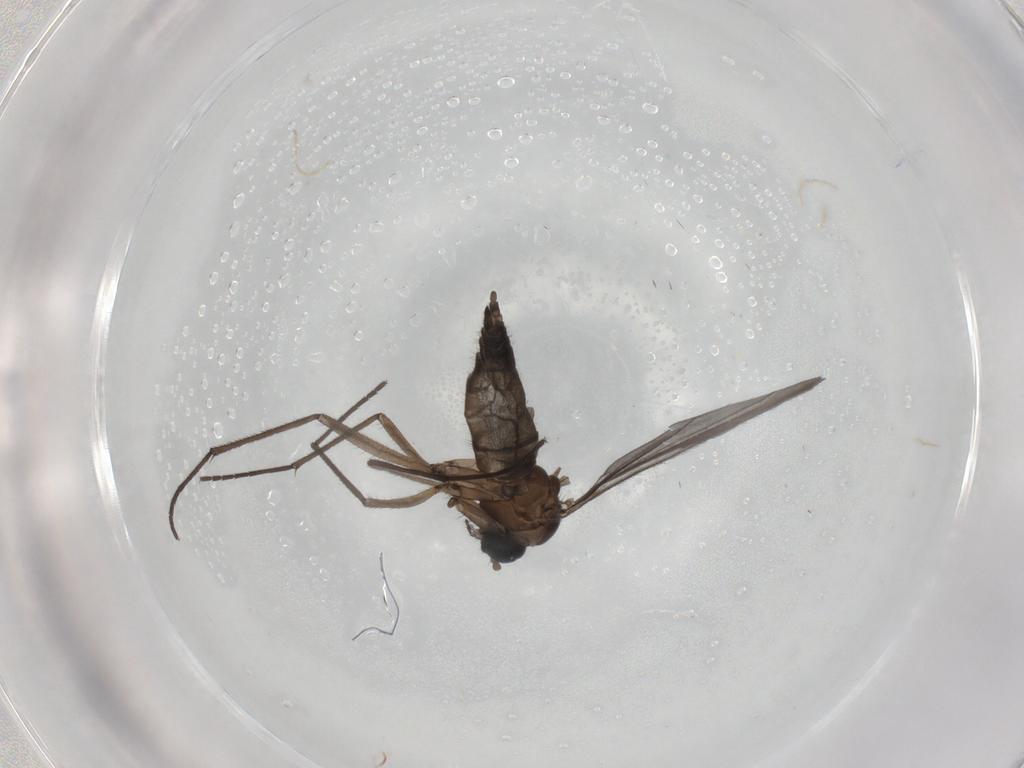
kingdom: Animalia
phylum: Arthropoda
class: Insecta
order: Diptera
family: Sciaridae
